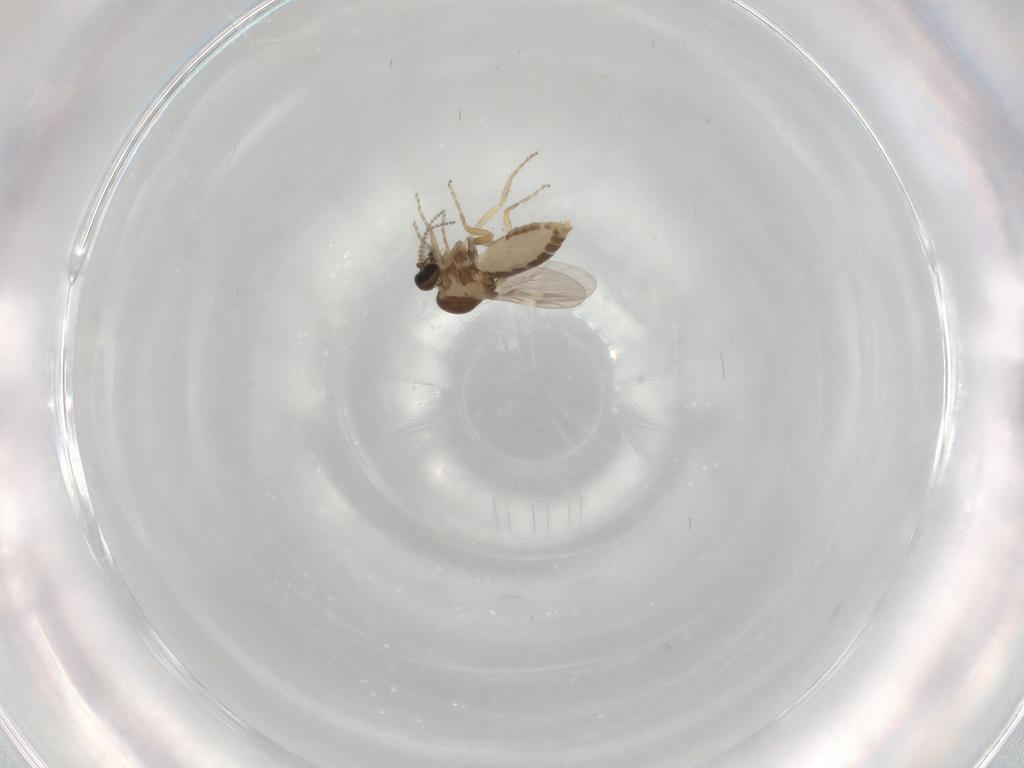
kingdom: Animalia
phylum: Arthropoda
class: Insecta
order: Diptera
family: Ceratopogonidae
